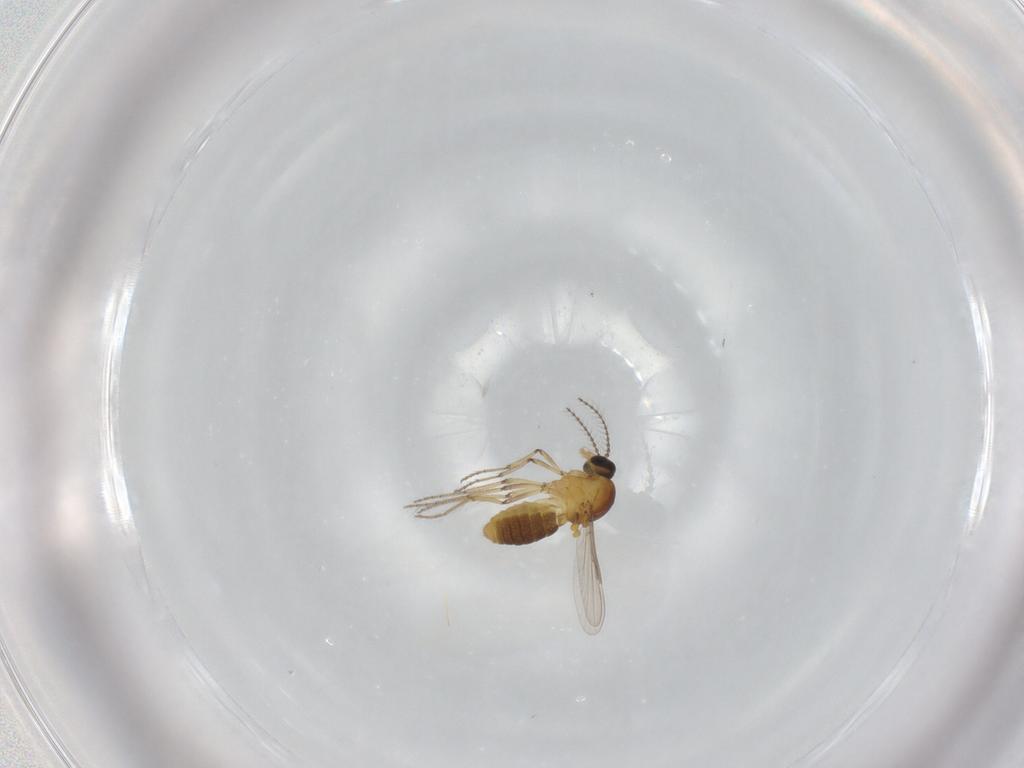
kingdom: Animalia
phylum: Arthropoda
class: Insecta
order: Diptera
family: Ceratopogonidae
